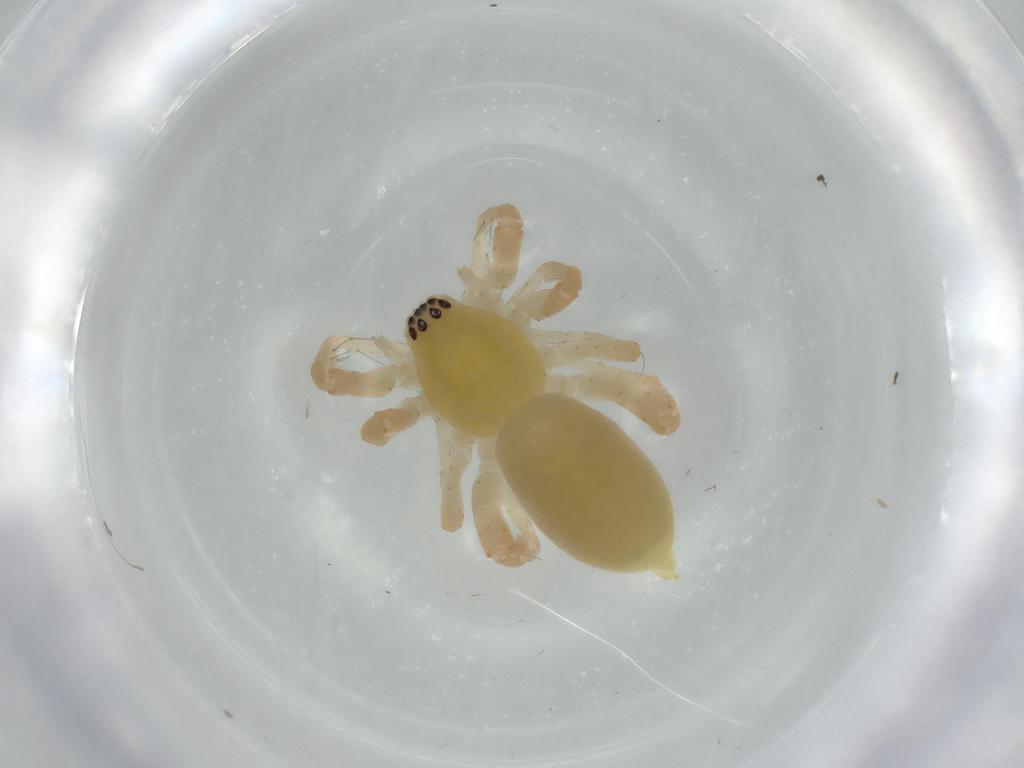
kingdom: Animalia
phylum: Arthropoda
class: Arachnida
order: Araneae
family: Anyphaenidae
